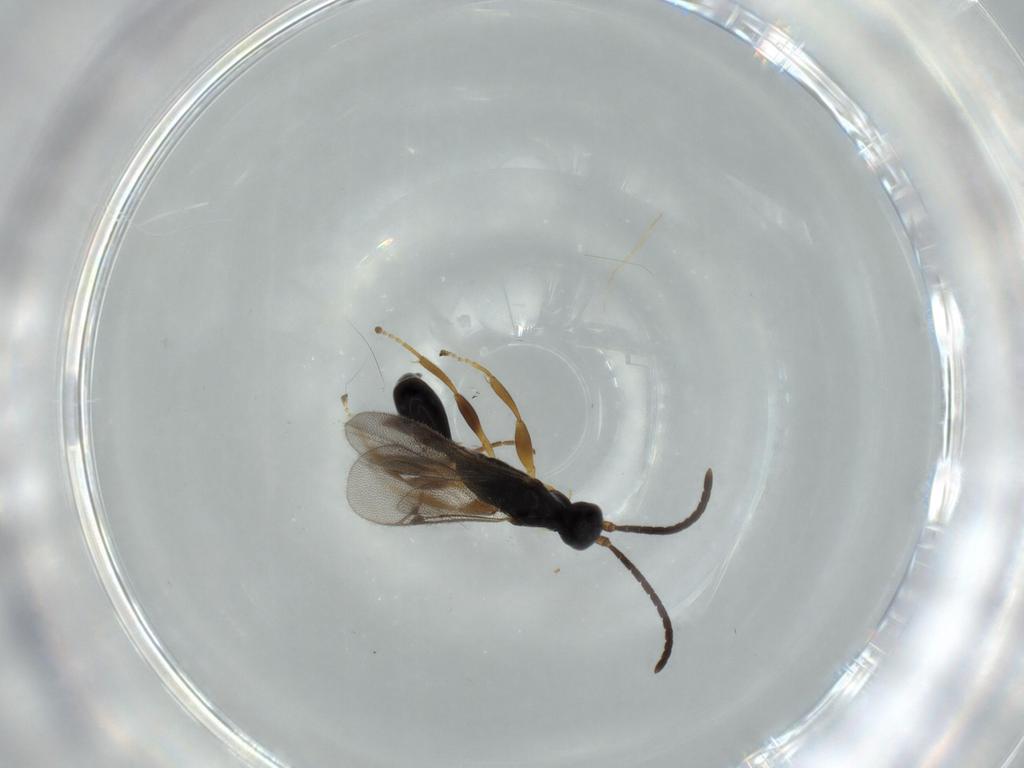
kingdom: Animalia
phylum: Arthropoda
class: Insecta
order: Hymenoptera
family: Proctotrupidae
